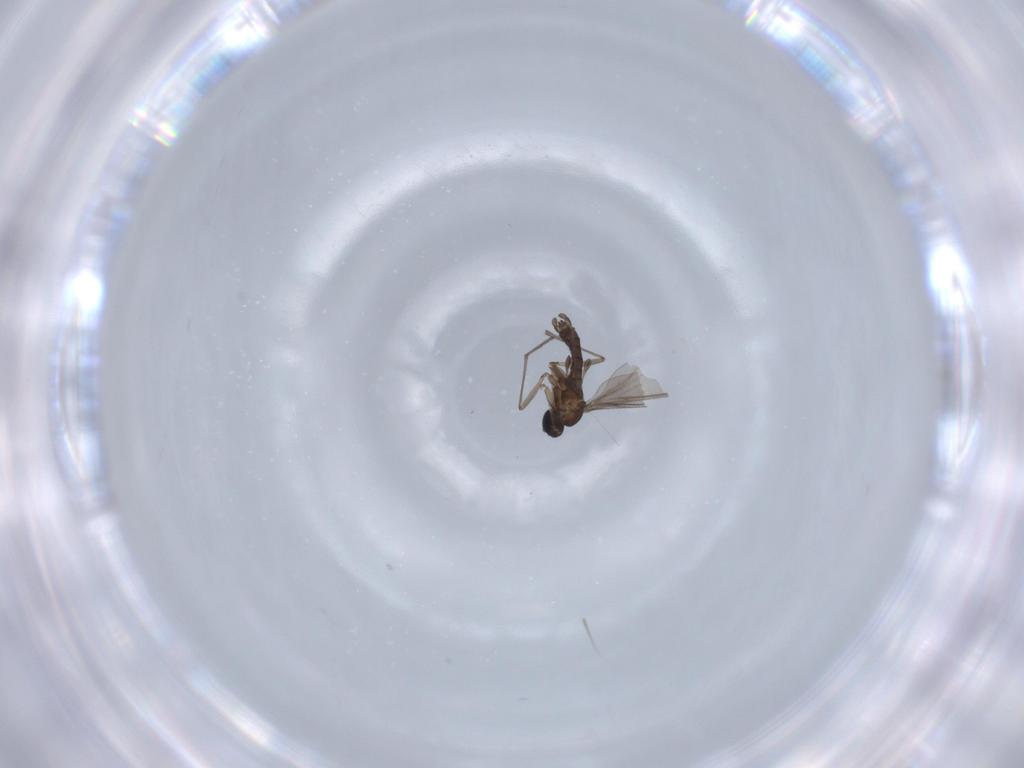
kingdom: Animalia
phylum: Arthropoda
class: Insecta
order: Diptera
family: Sciaridae
